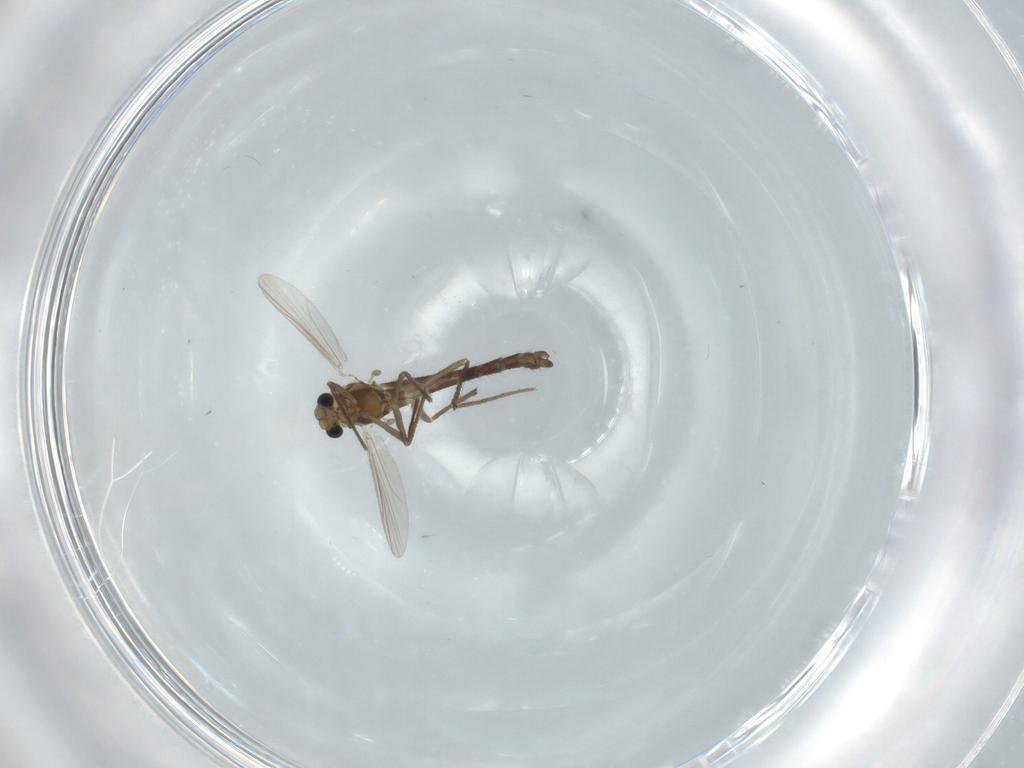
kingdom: Animalia
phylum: Arthropoda
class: Insecta
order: Diptera
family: Chironomidae
